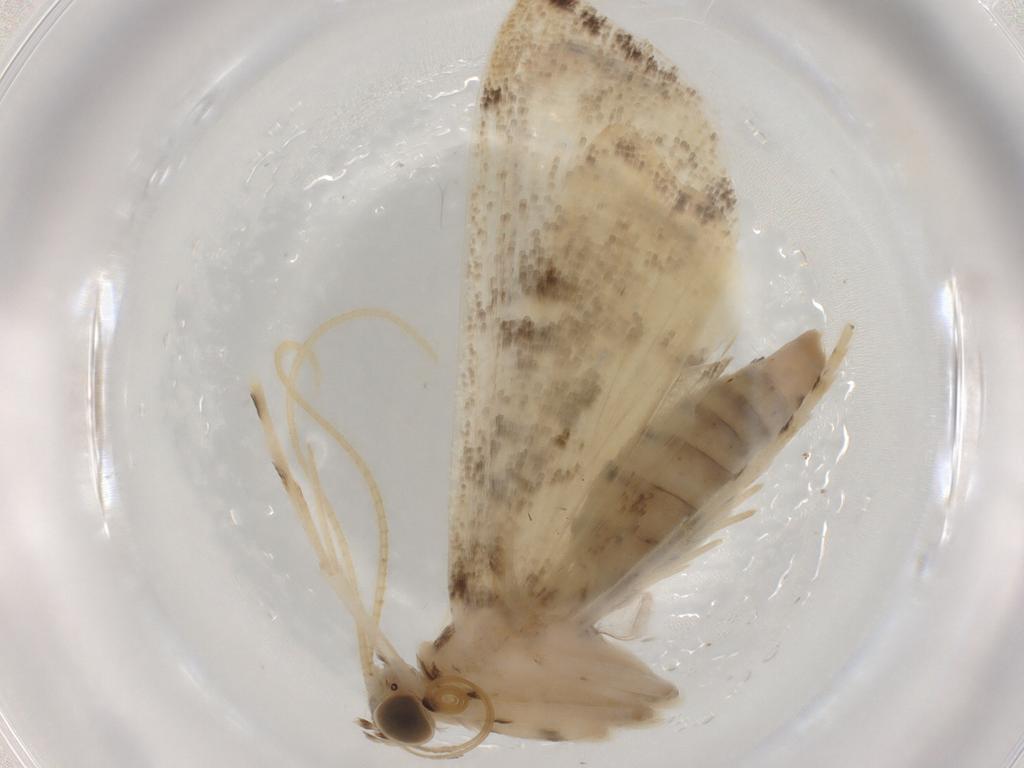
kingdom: Animalia
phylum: Arthropoda
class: Insecta
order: Lepidoptera
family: Crambidae
